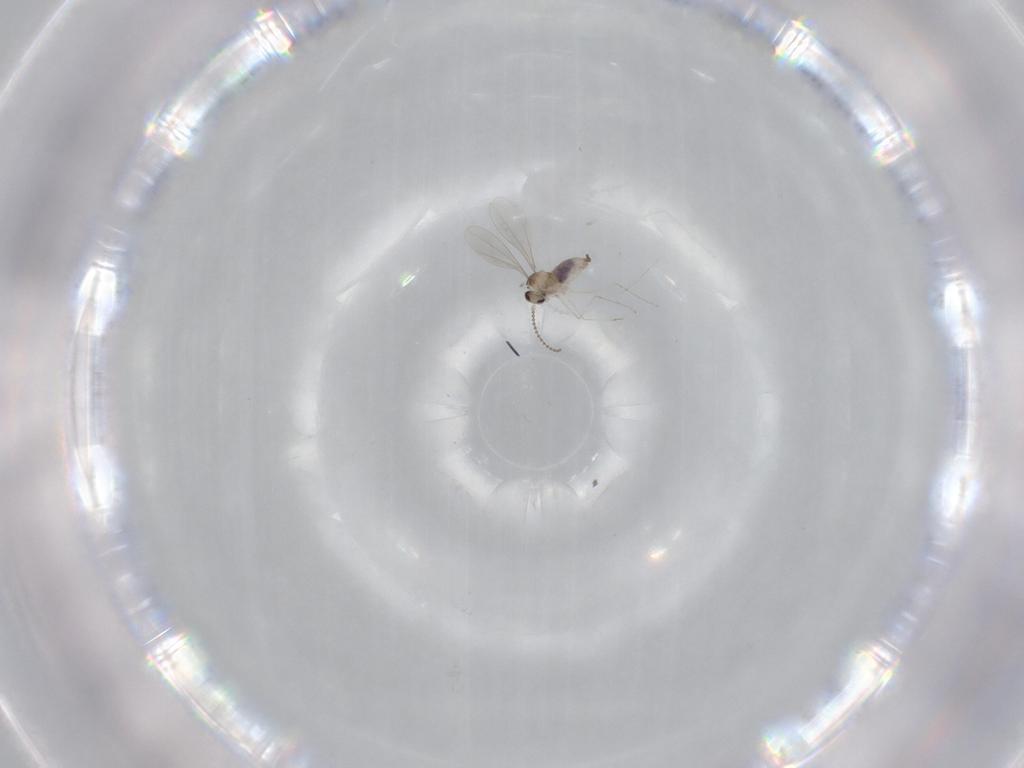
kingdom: Animalia
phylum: Arthropoda
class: Insecta
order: Diptera
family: Cecidomyiidae
